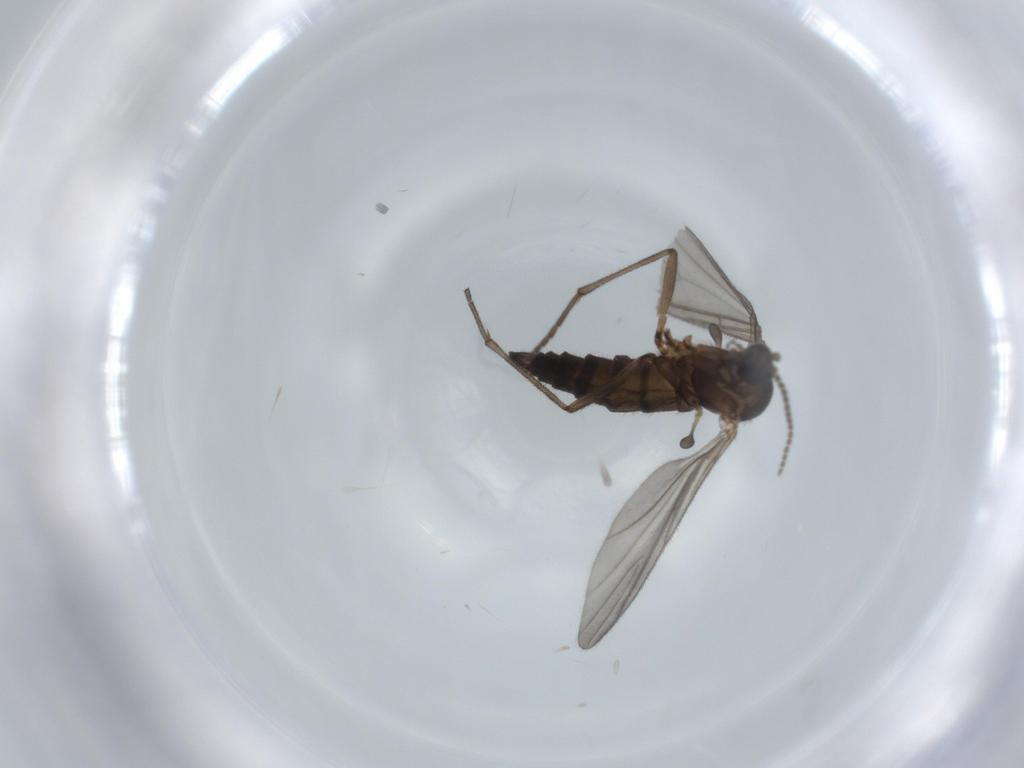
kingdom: Animalia
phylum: Arthropoda
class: Insecta
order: Diptera
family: Sciaridae
